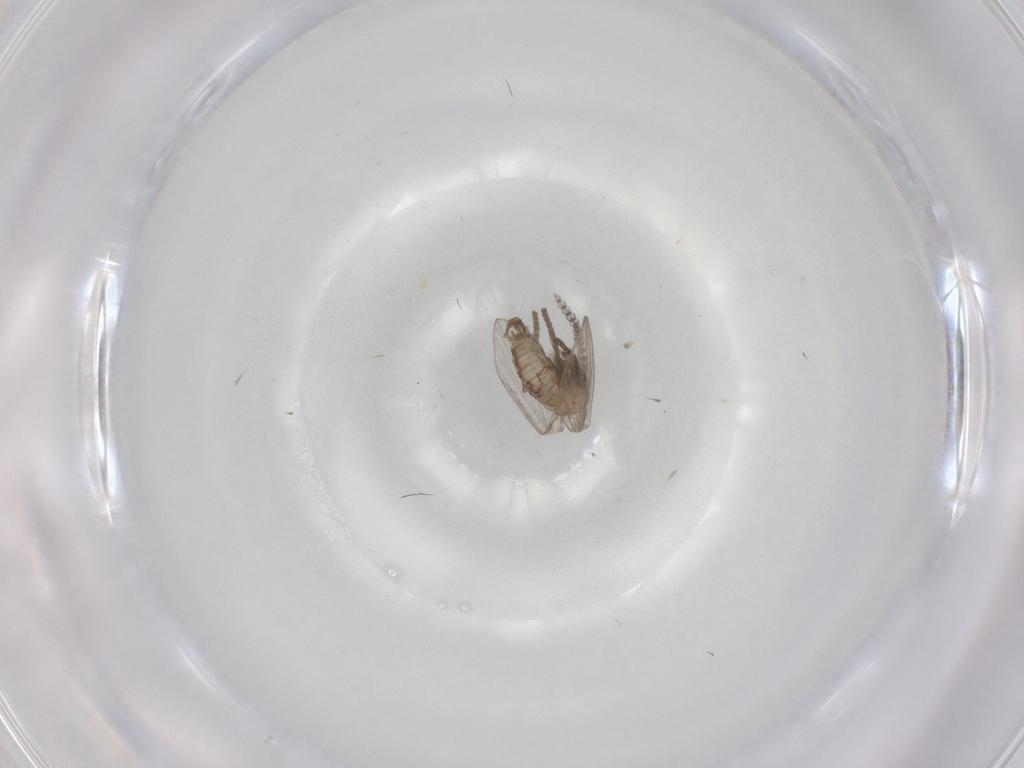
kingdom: Animalia
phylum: Arthropoda
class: Insecta
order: Diptera
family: Psychodidae
